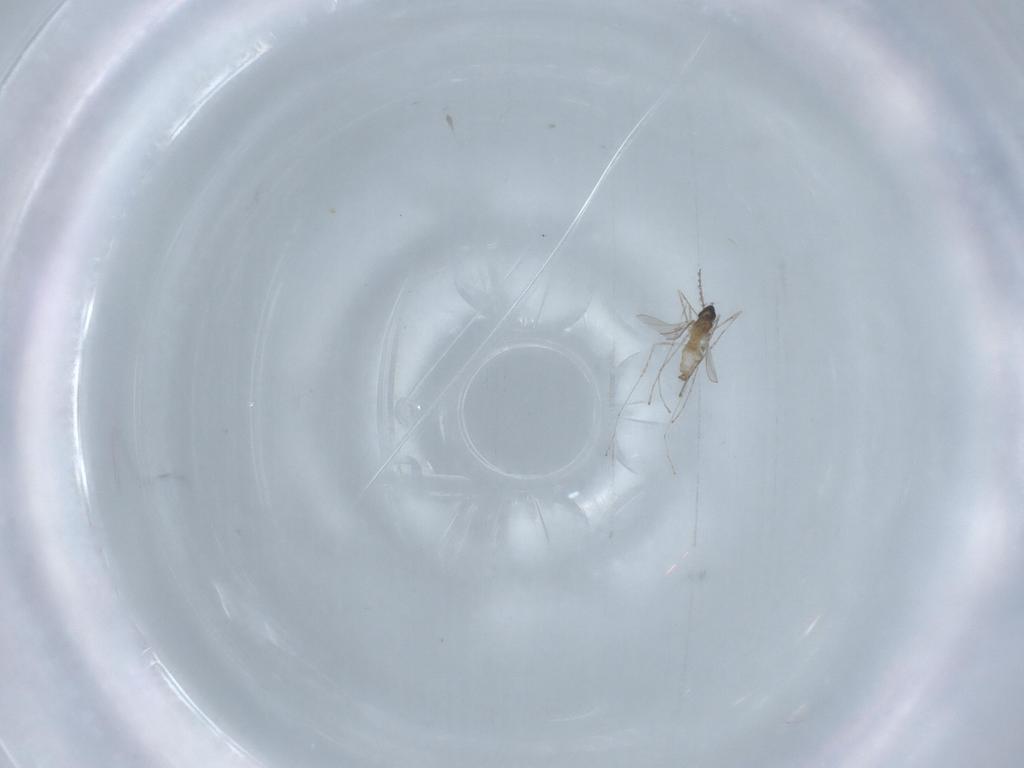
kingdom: Animalia
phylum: Arthropoda
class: Insecta
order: Diptera
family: Cecidomyiidae
